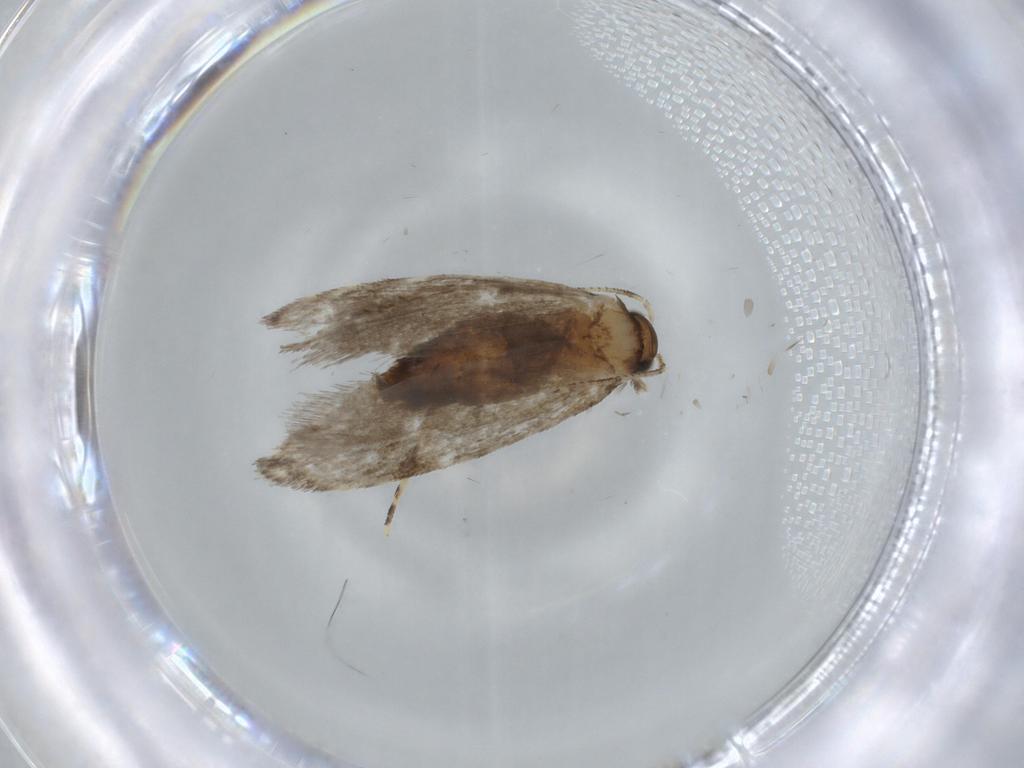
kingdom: Animalia
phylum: Arthropoda
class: Insecta
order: Lepidoptera
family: Tineidae
